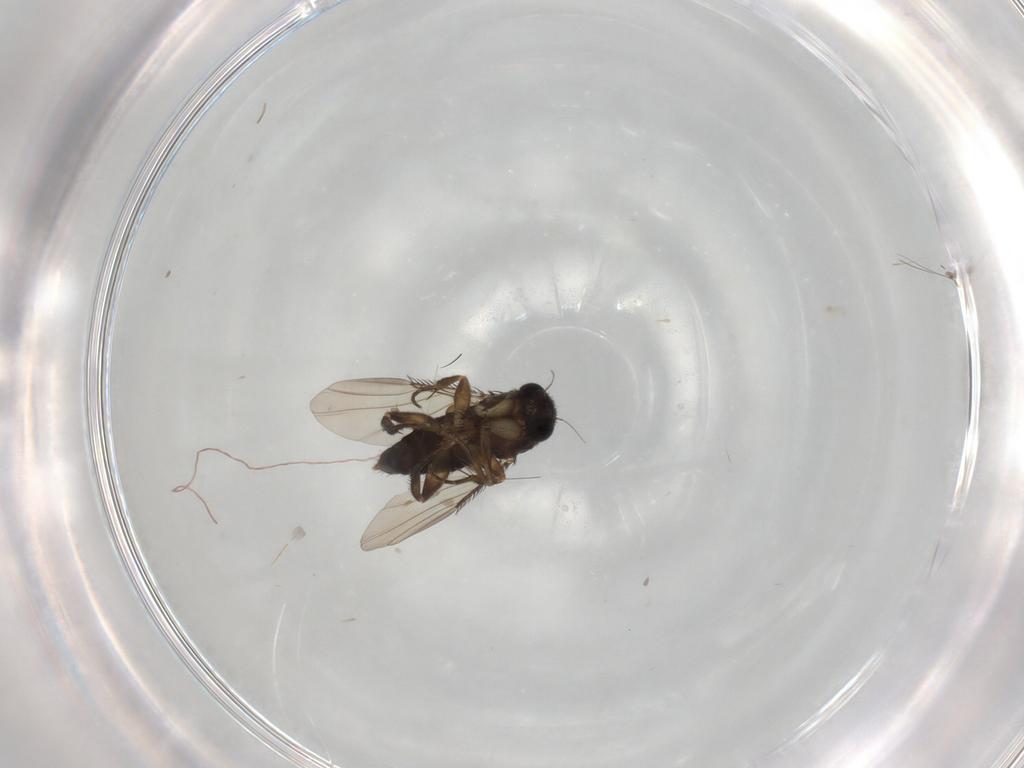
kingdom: Animalia
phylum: Arthropoda
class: Insecta
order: Diptera
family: Phoridae
